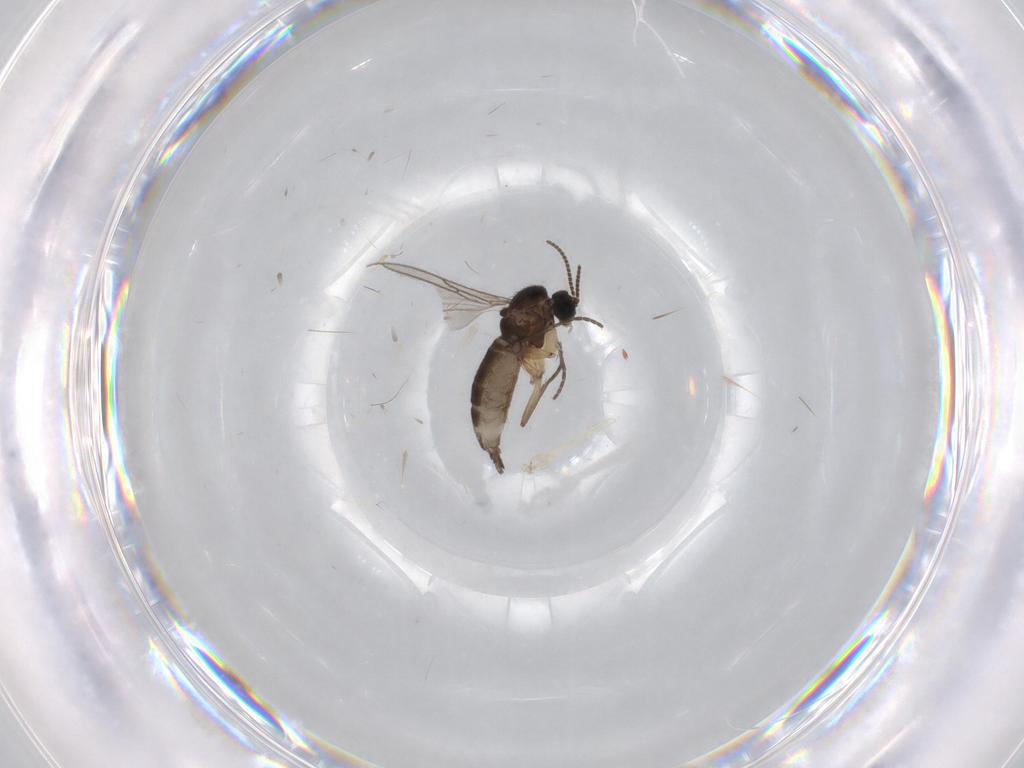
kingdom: Animalia
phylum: Arthropoda
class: Insecta
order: Diptera
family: Sciaridae
